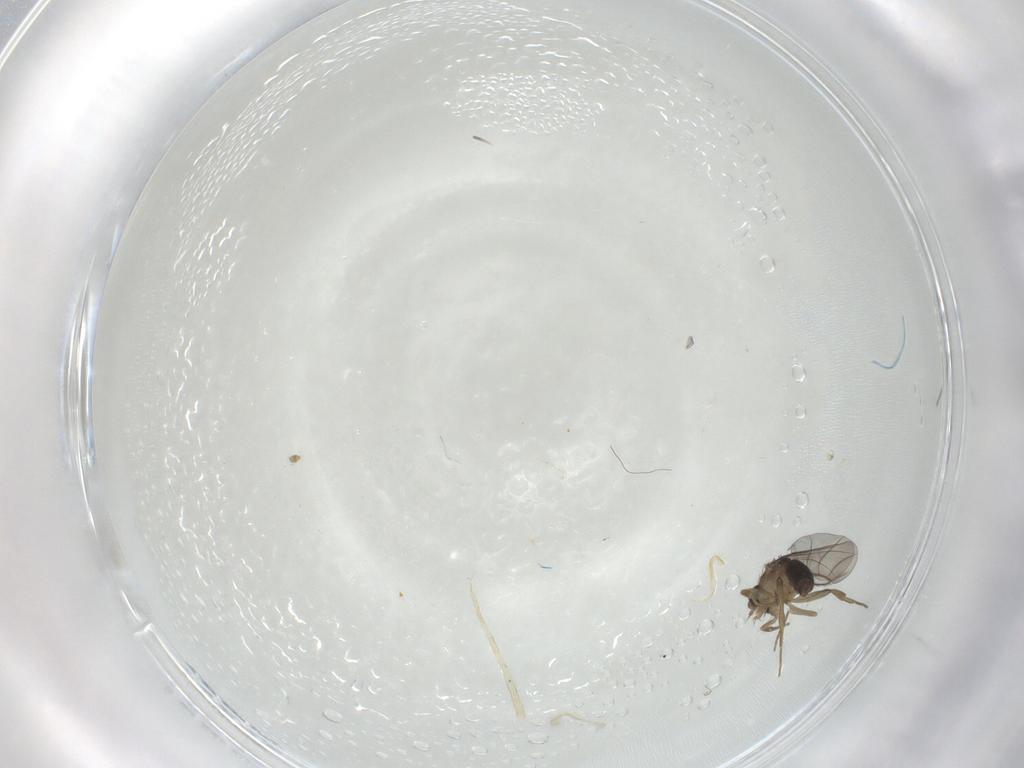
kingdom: Animalia
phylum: Arthropoda
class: Insecta
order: Diptera
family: Phoridae
